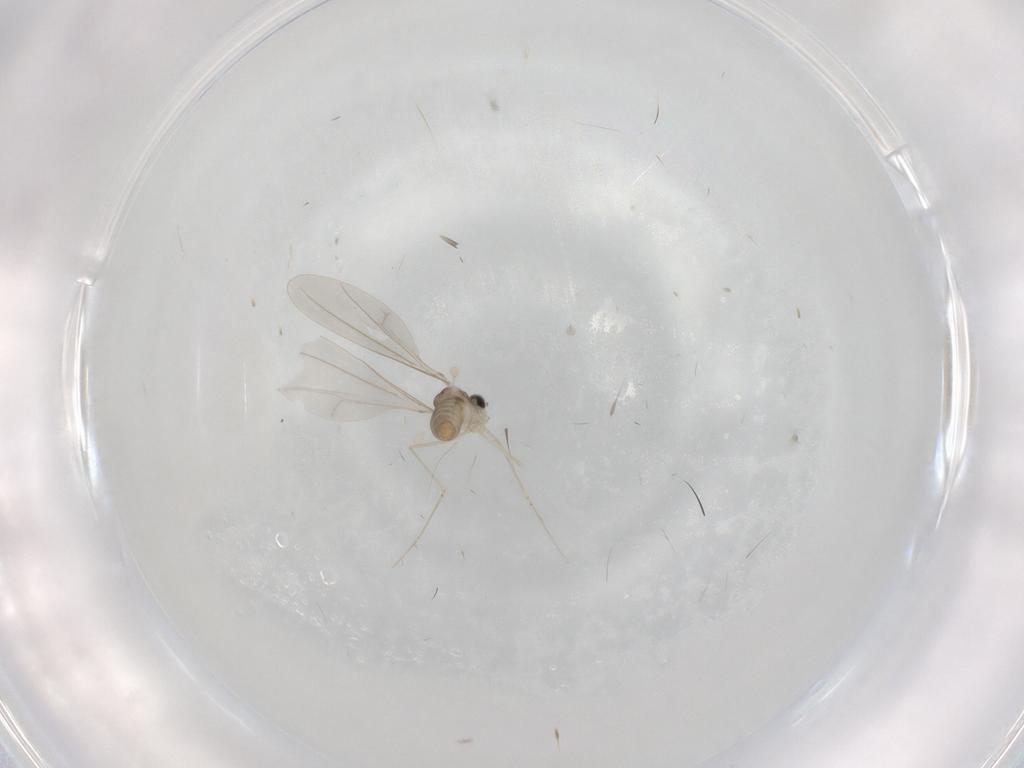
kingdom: Animalia
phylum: Arthropoda
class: Insecta
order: Diptera
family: Cecidomyiidae
